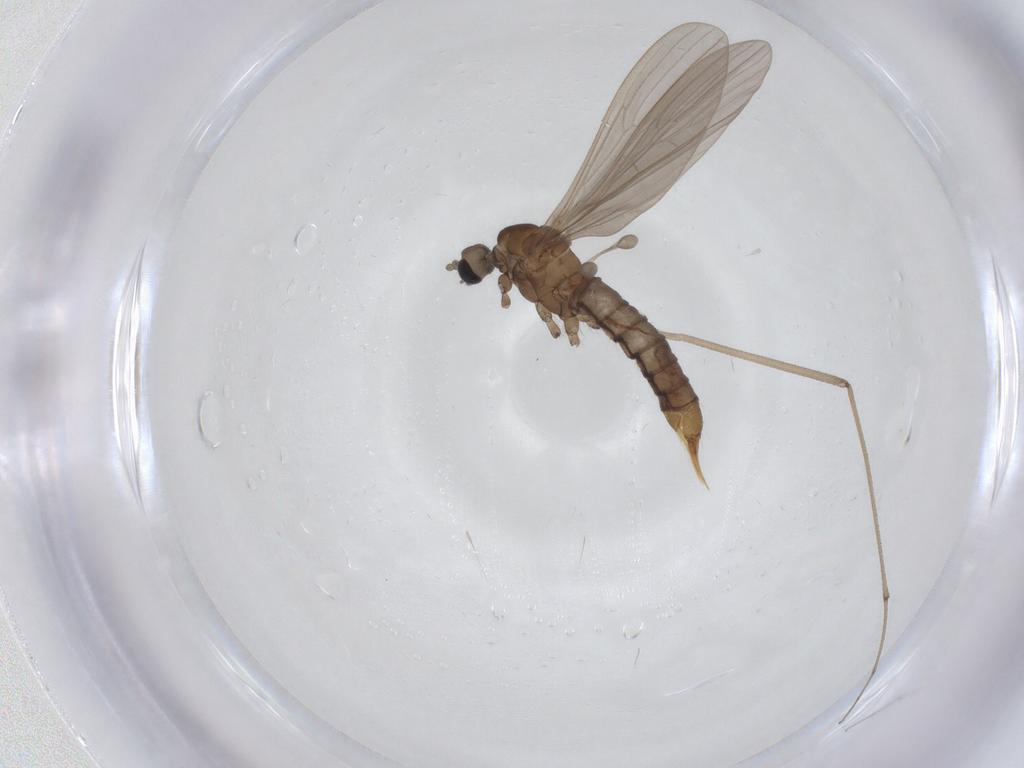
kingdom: Animalia
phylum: Arthropoda
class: Insecta
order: Diptera
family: Limoniidae
